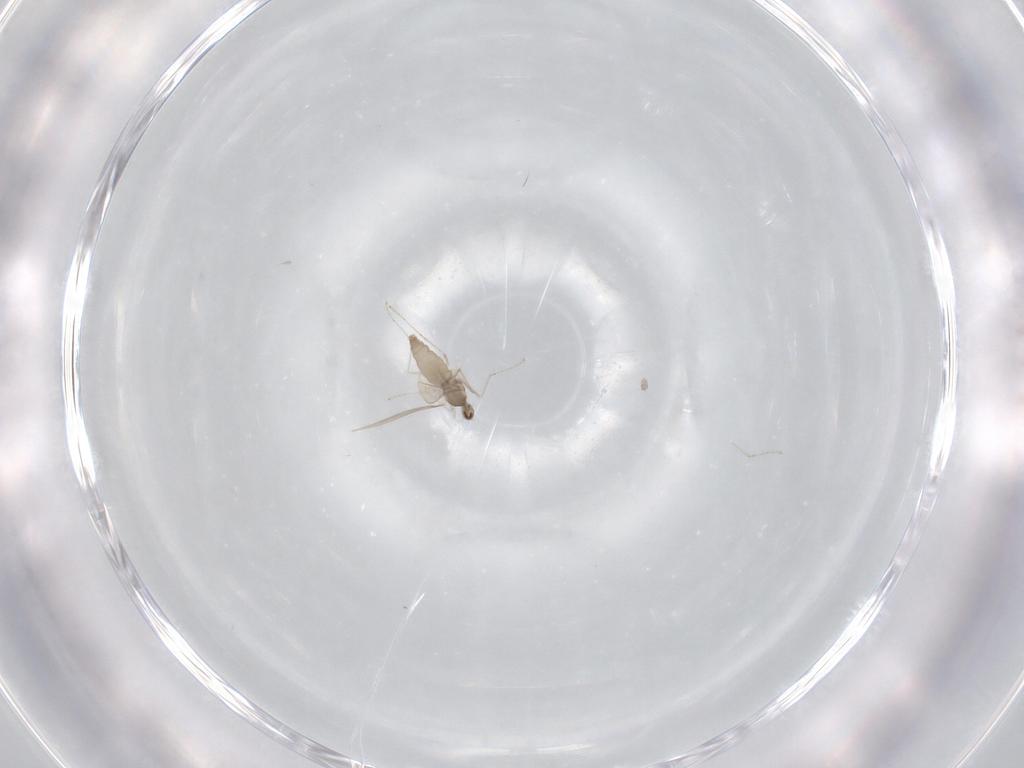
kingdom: Animalia
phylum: Arthropoda
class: Insecta
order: Diptera
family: Cecidomyiidae
